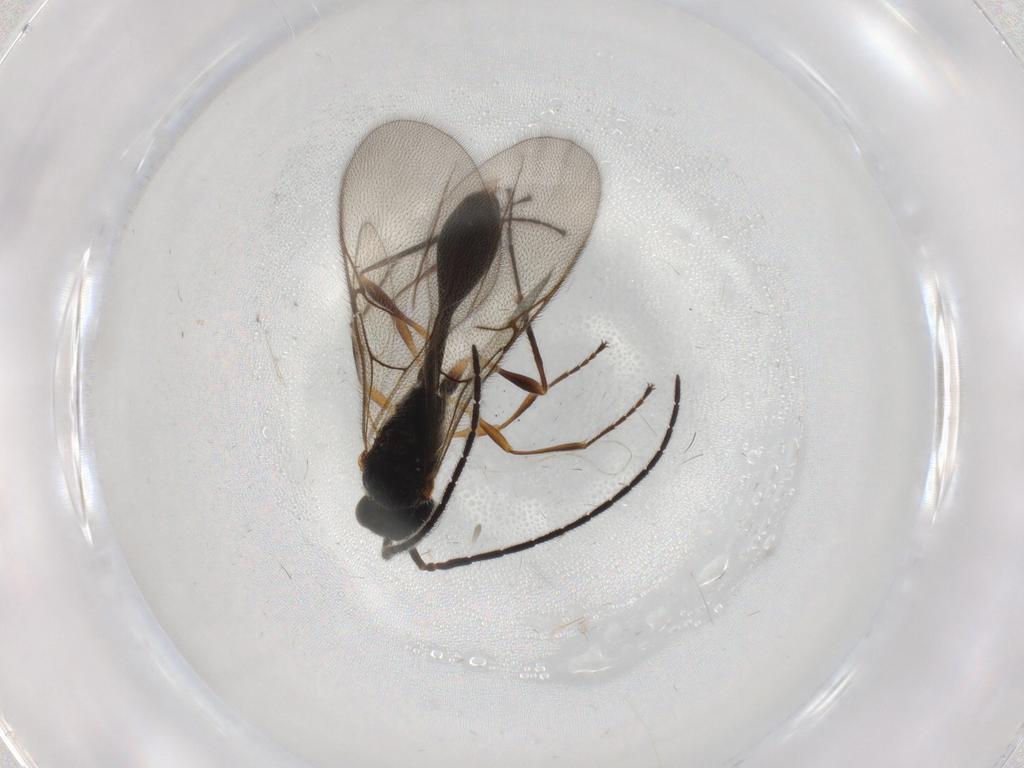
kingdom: Animalia
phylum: Arthropoda
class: Insecta
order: Hymenoptera
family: Diapriidae
